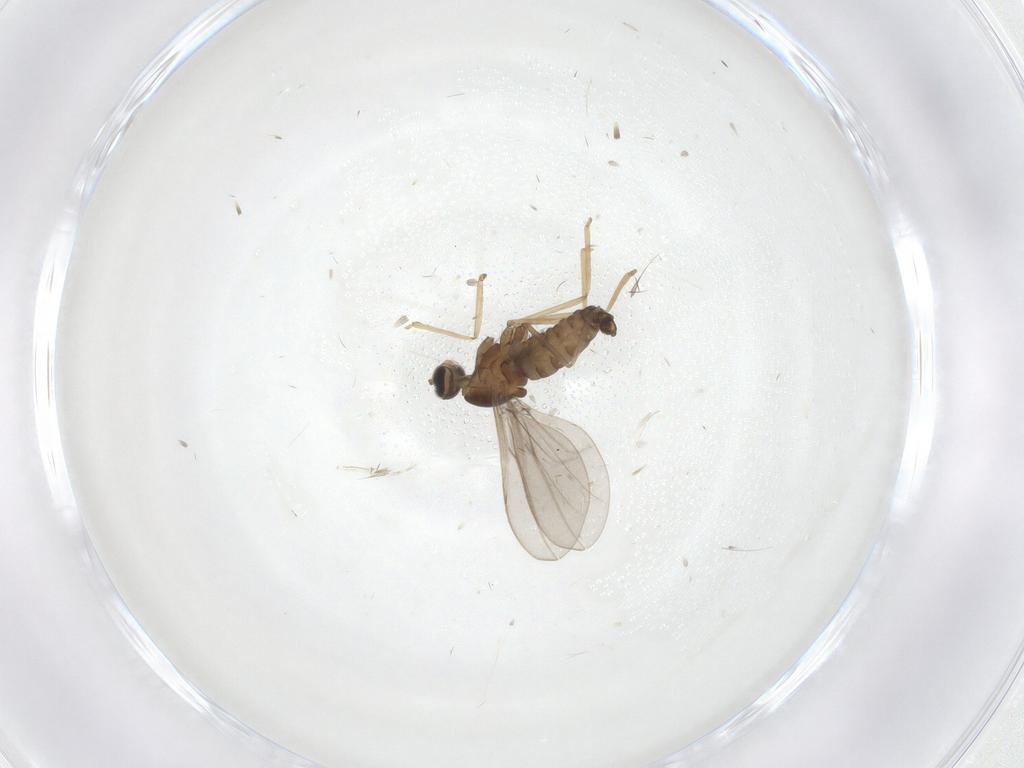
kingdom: Animalia
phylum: Arthropoda
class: Insecta
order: Diptera
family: Cecidomyiidae
